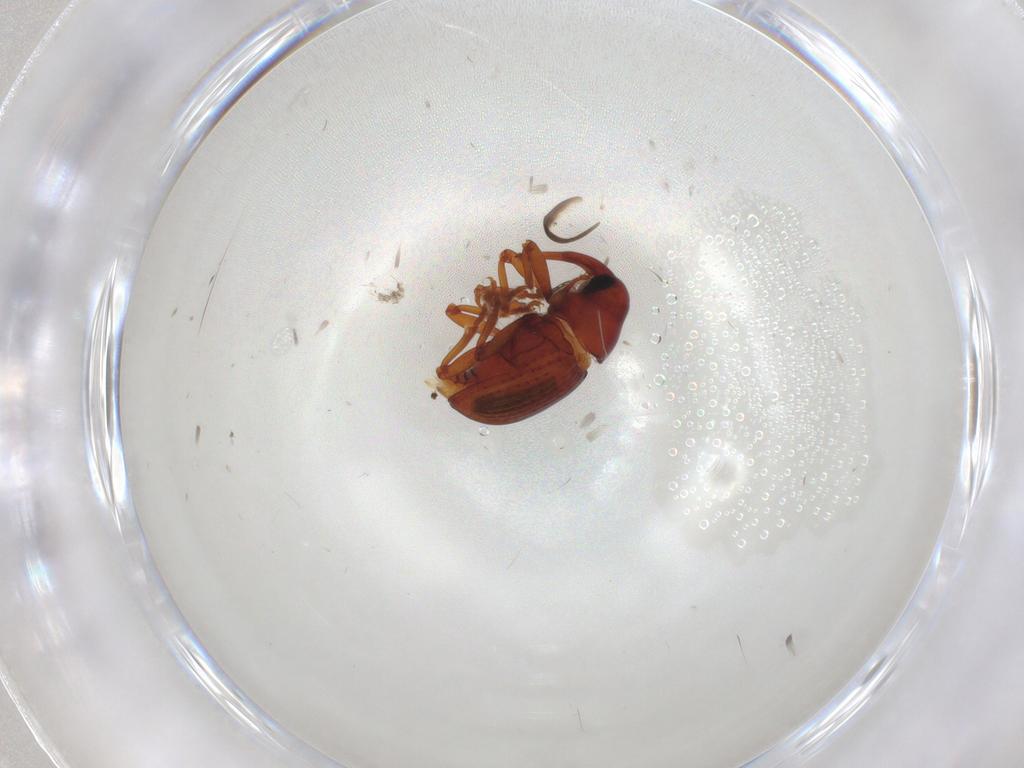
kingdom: Animalia
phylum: Arthropoda
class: Insecta
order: Coleoptera
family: Curculionidae
